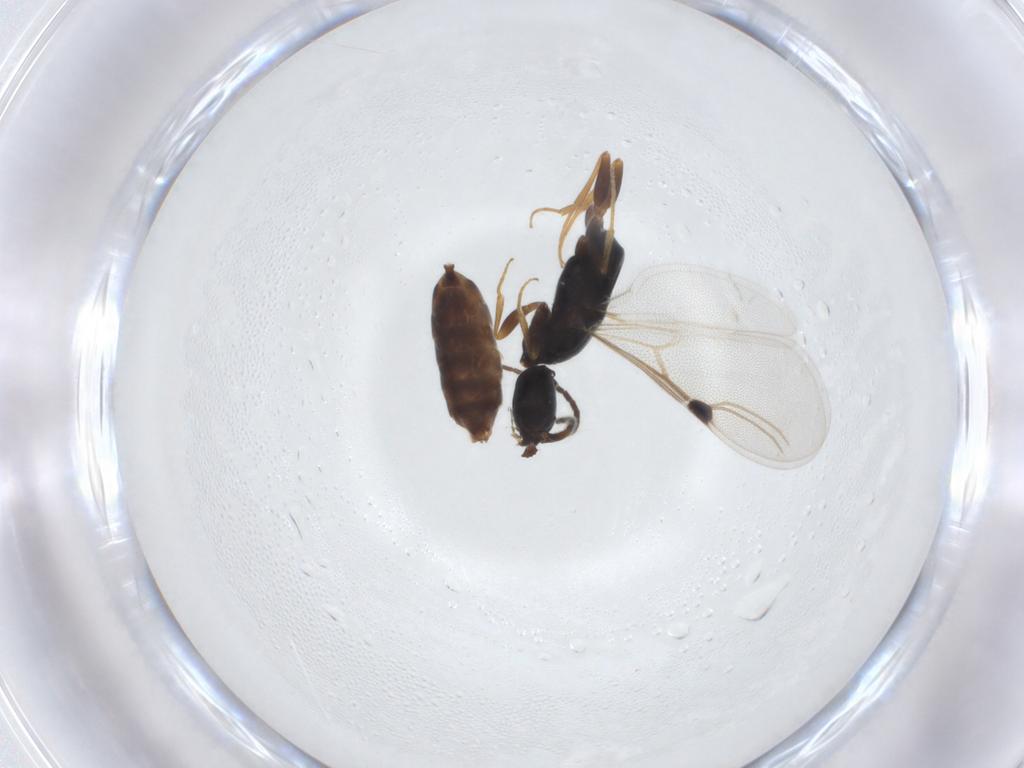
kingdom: Animalia
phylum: Arthropoda
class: Insecta
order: Hymenoptera
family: Bethylidae
